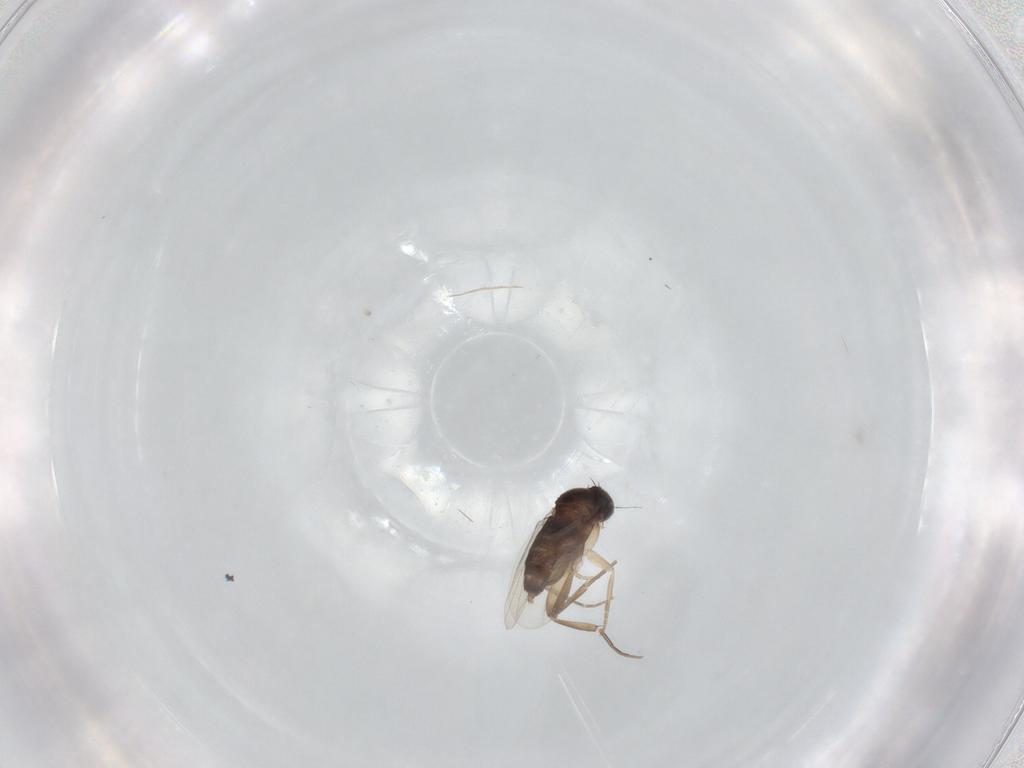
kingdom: Animalia
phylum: Arthropoda
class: Insecta
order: Diptera
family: Phoridae
